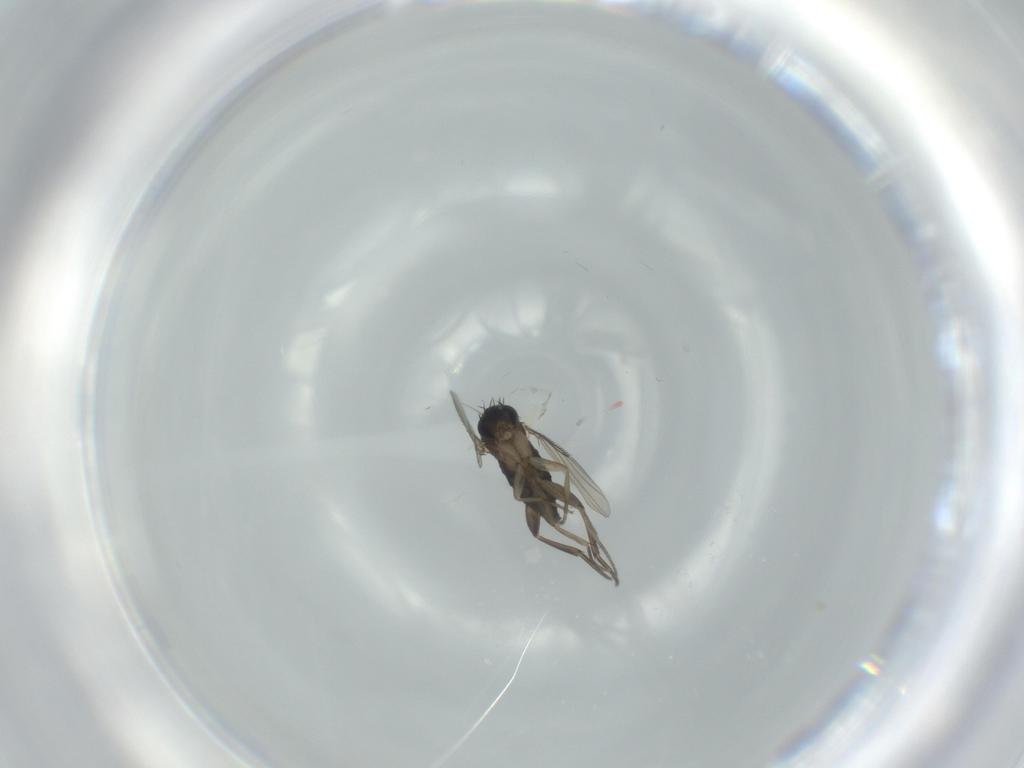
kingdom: Animalia
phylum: Arthropoda
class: Insecta
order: Diptera
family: Phoridae
